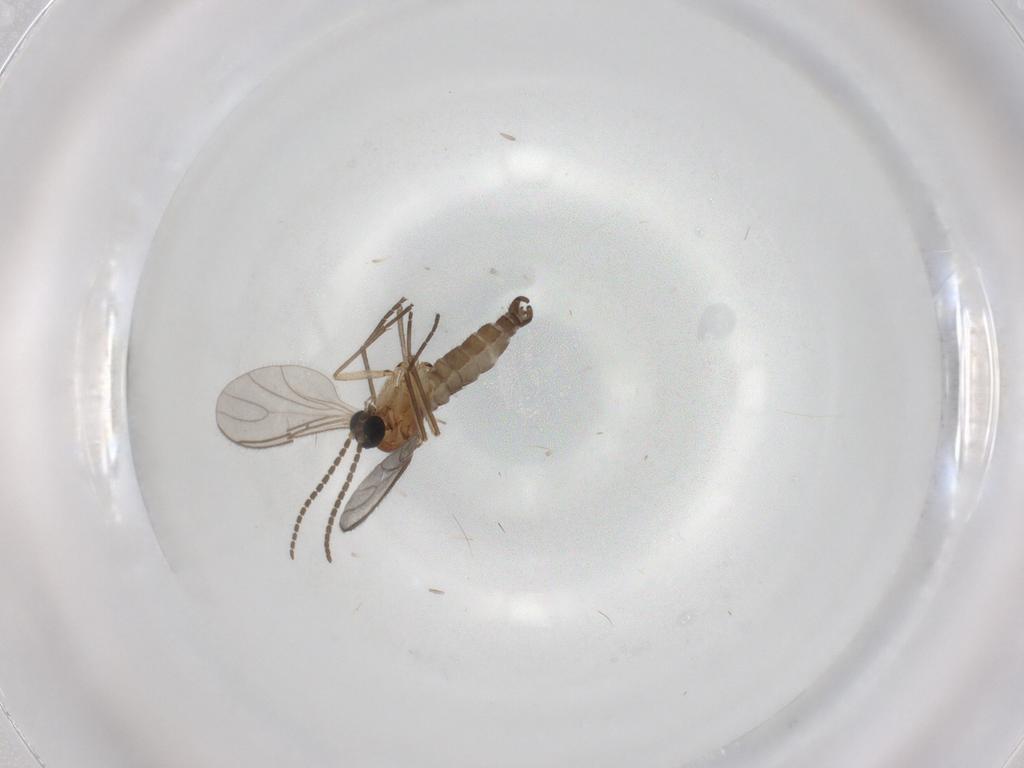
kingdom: Animalia
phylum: Arthropoda
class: Insecta
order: Diptera
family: Sciaridae
